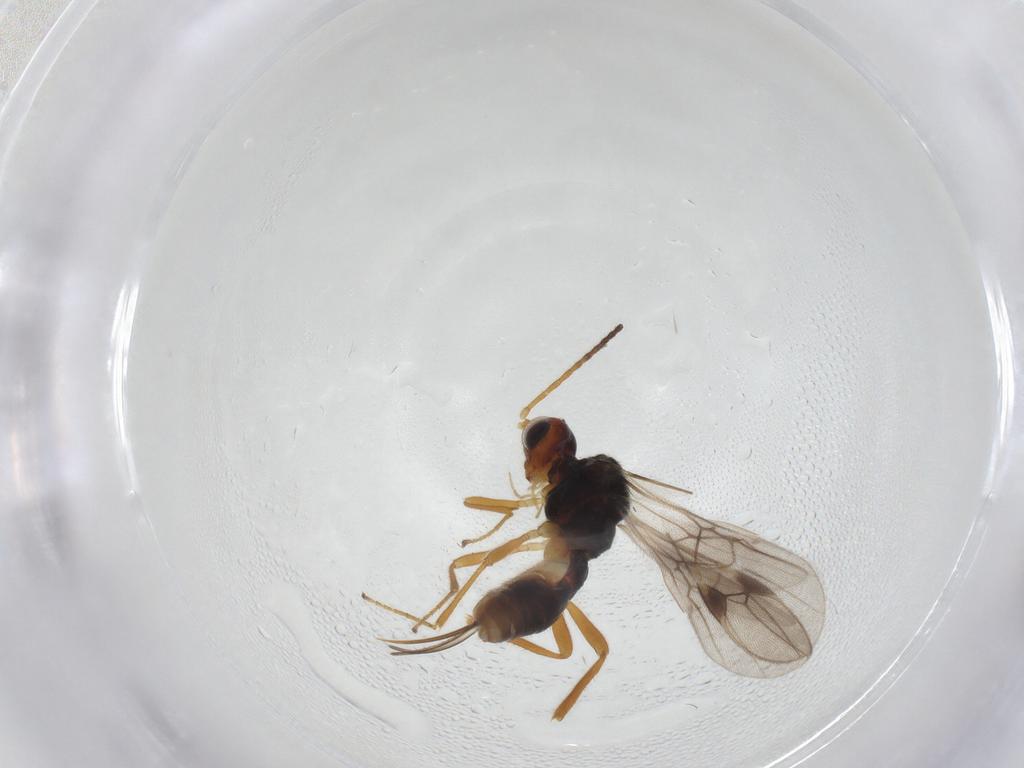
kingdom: Animalia
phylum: Arthropoda
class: Insecta
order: Hymenoptera
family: Braconidae
